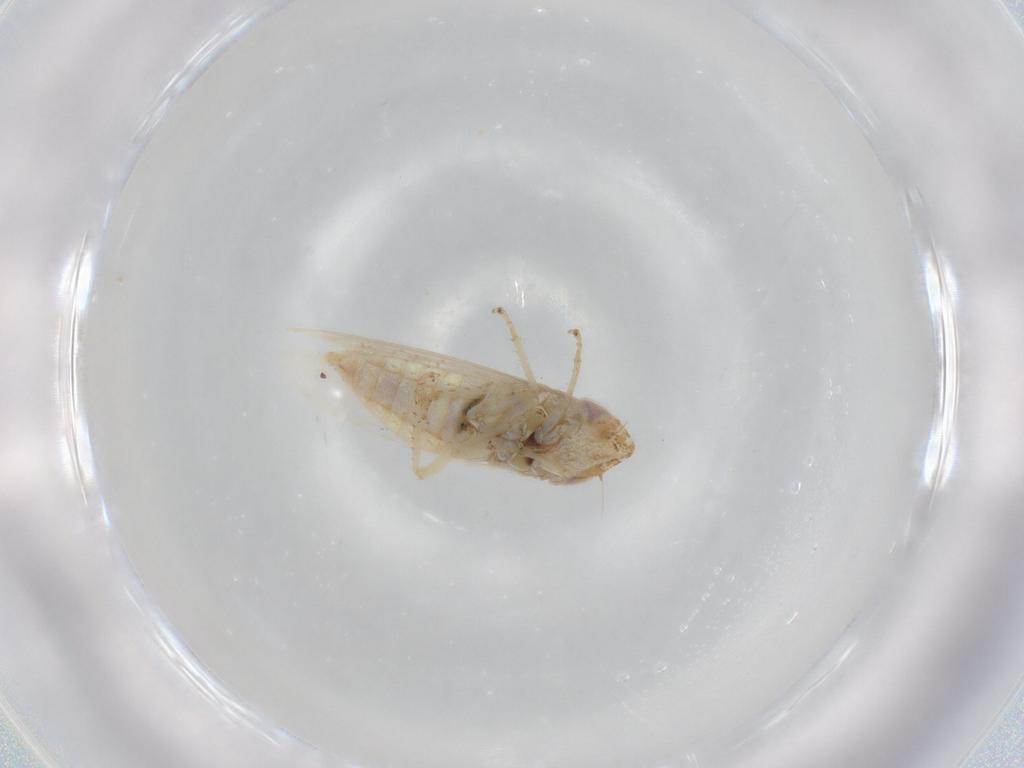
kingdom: Animalia
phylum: Arthropoda
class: Insecta
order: Hemiptera
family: Cicadellidae
